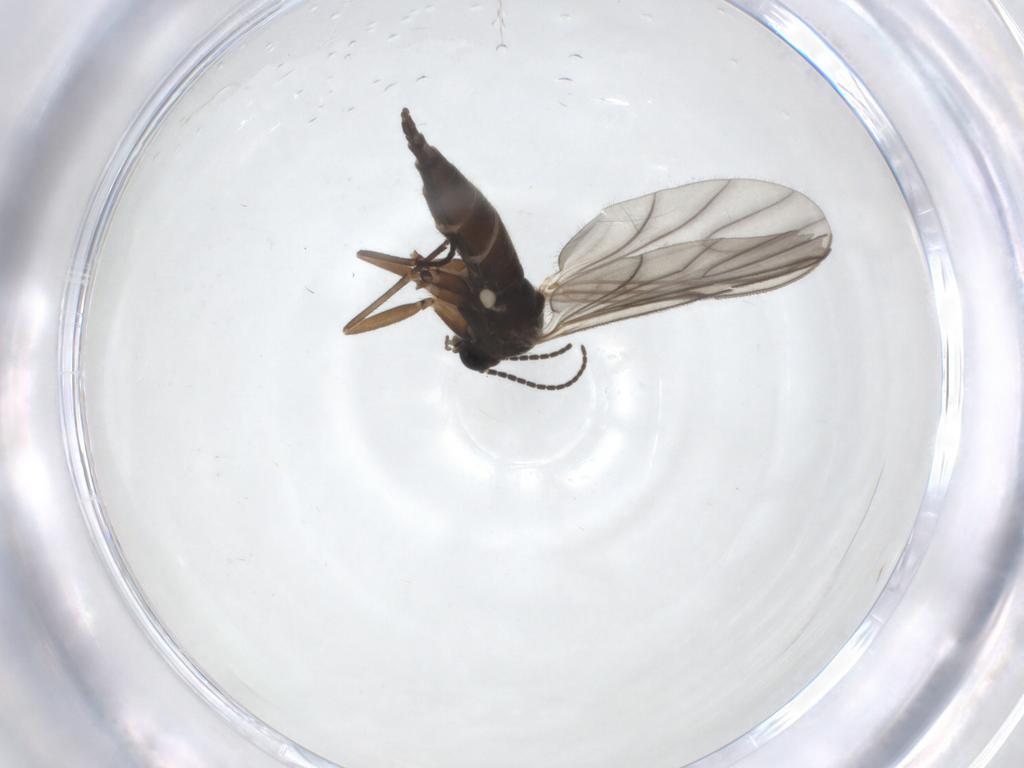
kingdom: Animalia
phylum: Arthropoda
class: Insecta
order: Diptera
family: Sciaridae
